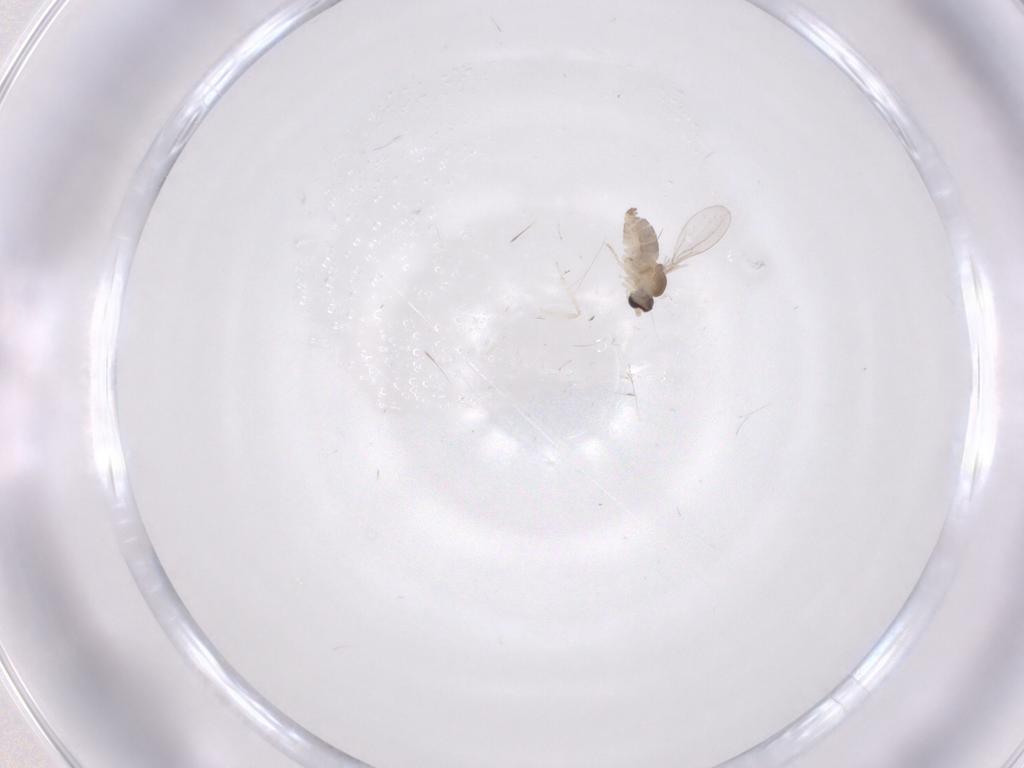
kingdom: Animalia
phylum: Arthropoda
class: Insecta
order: Diptera
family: Cecidomyiidae
